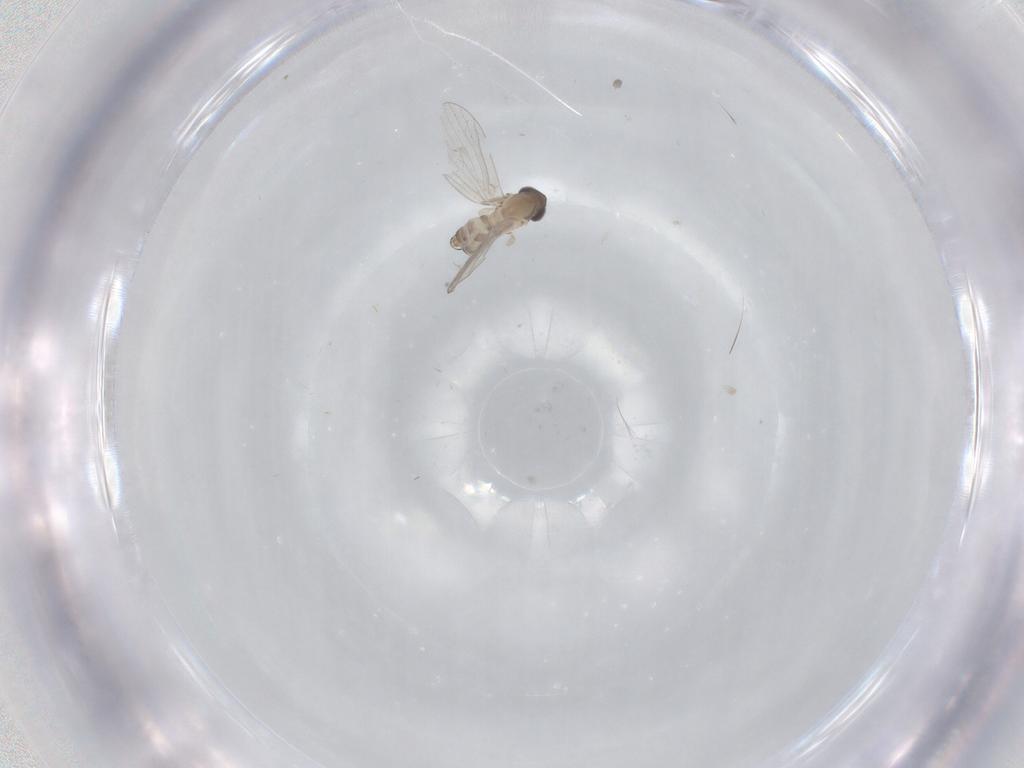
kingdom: Animalia
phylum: Arthropoda
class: Insecta
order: Diptera
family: Psychodidae
